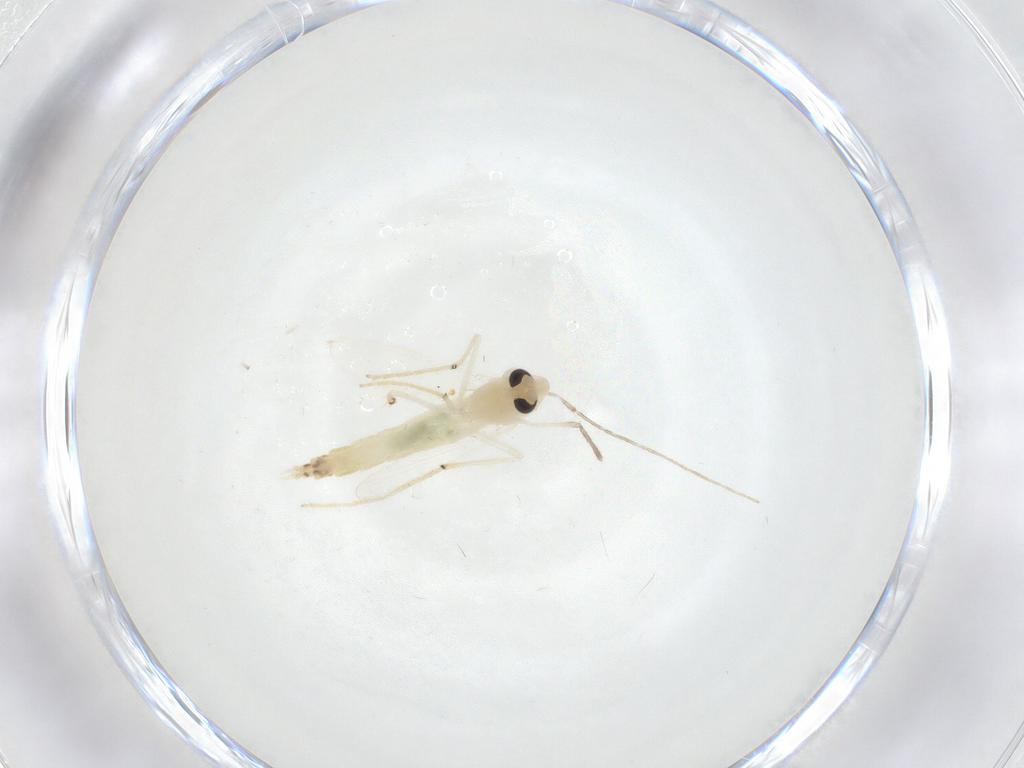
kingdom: Animalia
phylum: Arthropoda
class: Insecta
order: Diptera
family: Chironomidae
